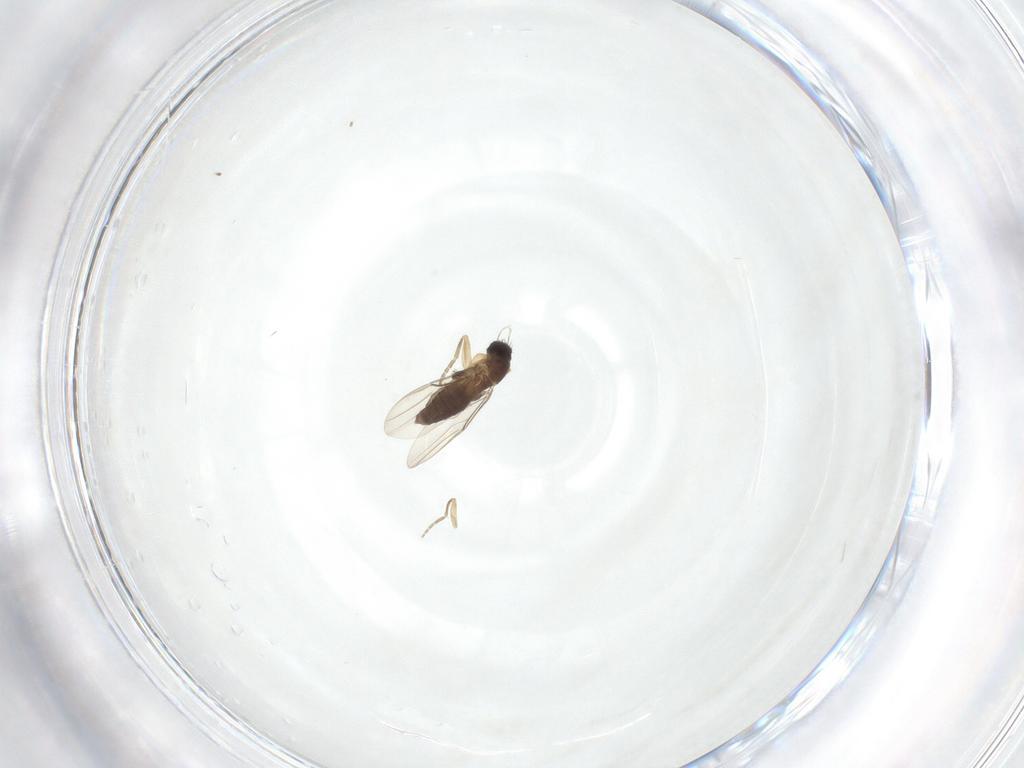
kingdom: Animalia
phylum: Arthropoda
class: Insecta
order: Diptera
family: Phoridae
